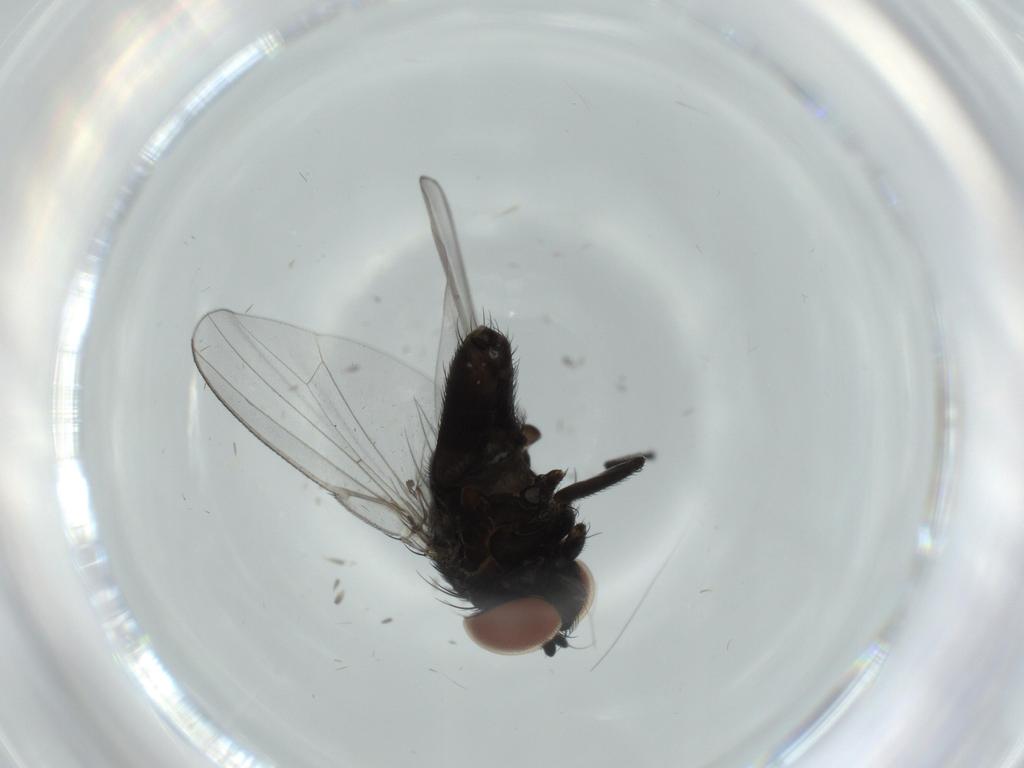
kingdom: Animalia
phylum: Arthropoda
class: Insecta
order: Diptera
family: Milichiidae
